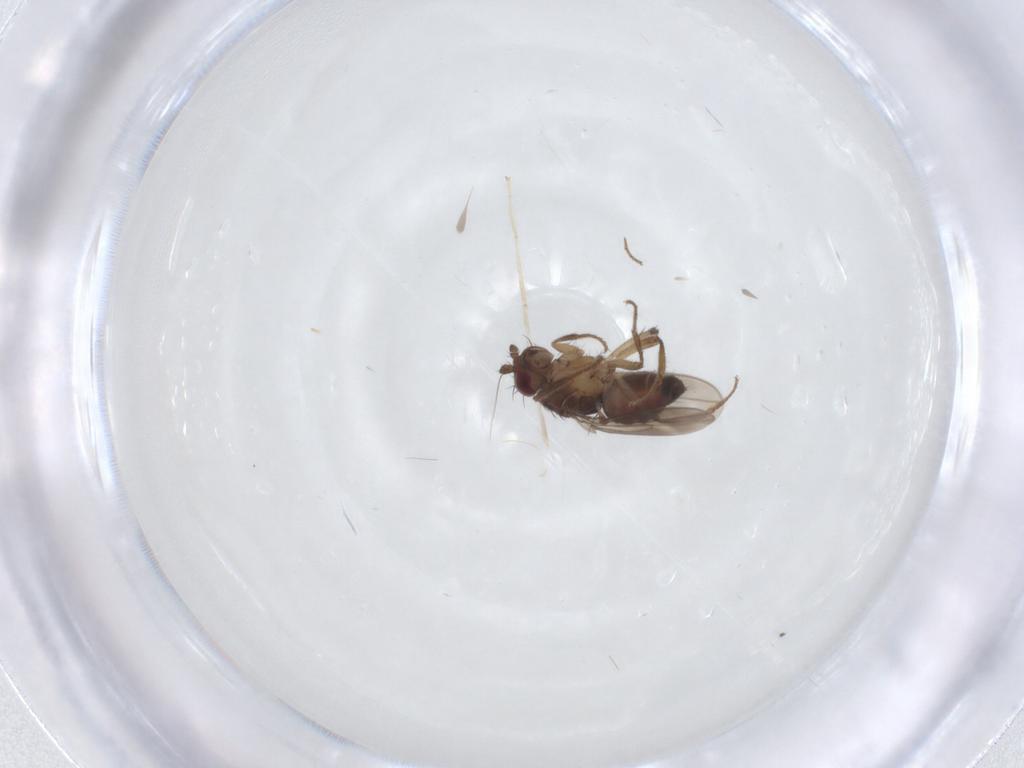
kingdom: Animalia
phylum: Arthropoda
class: Insecta
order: Diptera
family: Sphaeroceridae
